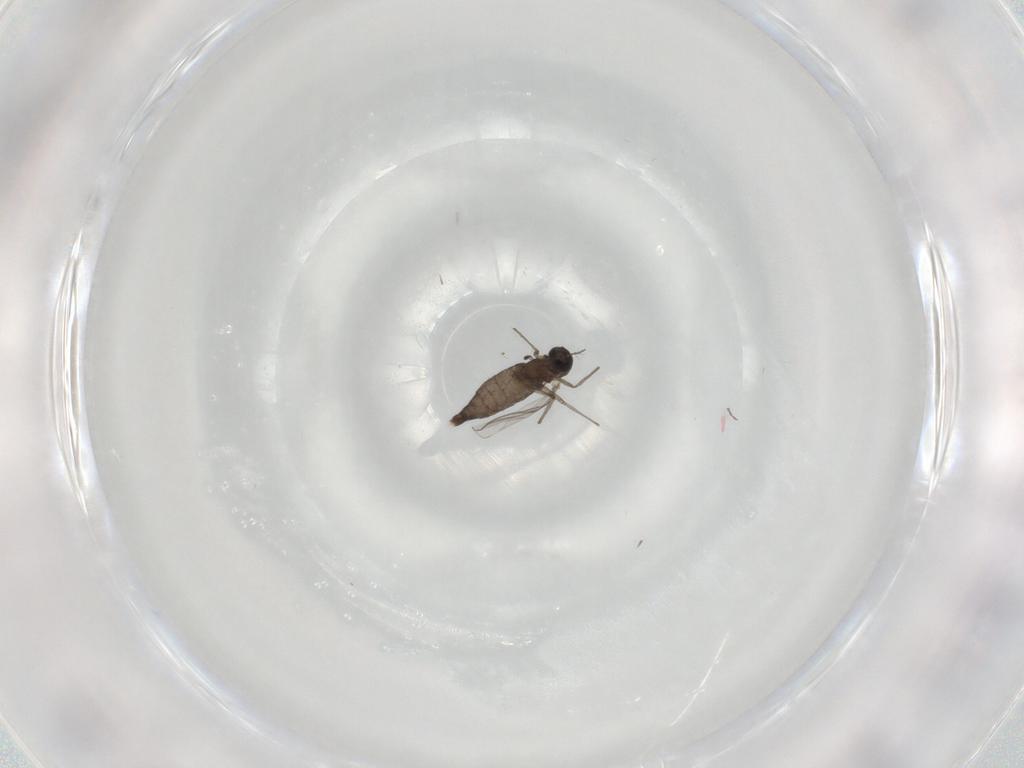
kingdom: Animalia
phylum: Arthropoda
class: Insecta
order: Diptera
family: Chironomidae
